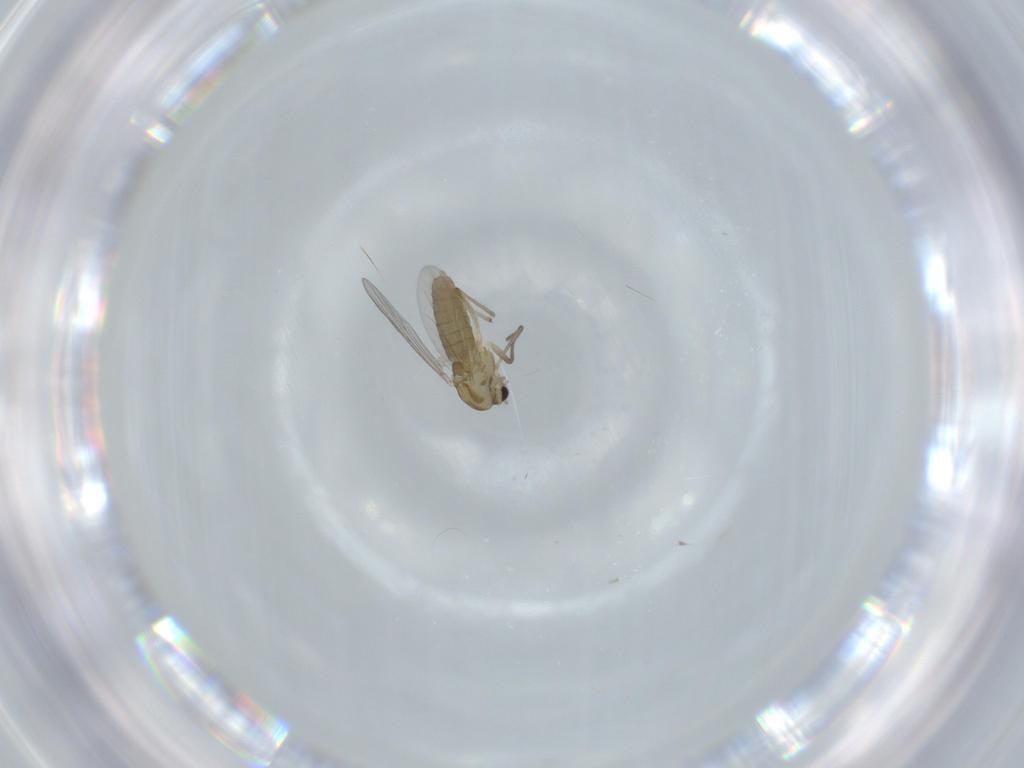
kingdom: Animalia
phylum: Arthropoda
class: Insecta
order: Diptera
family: Chironomidae
